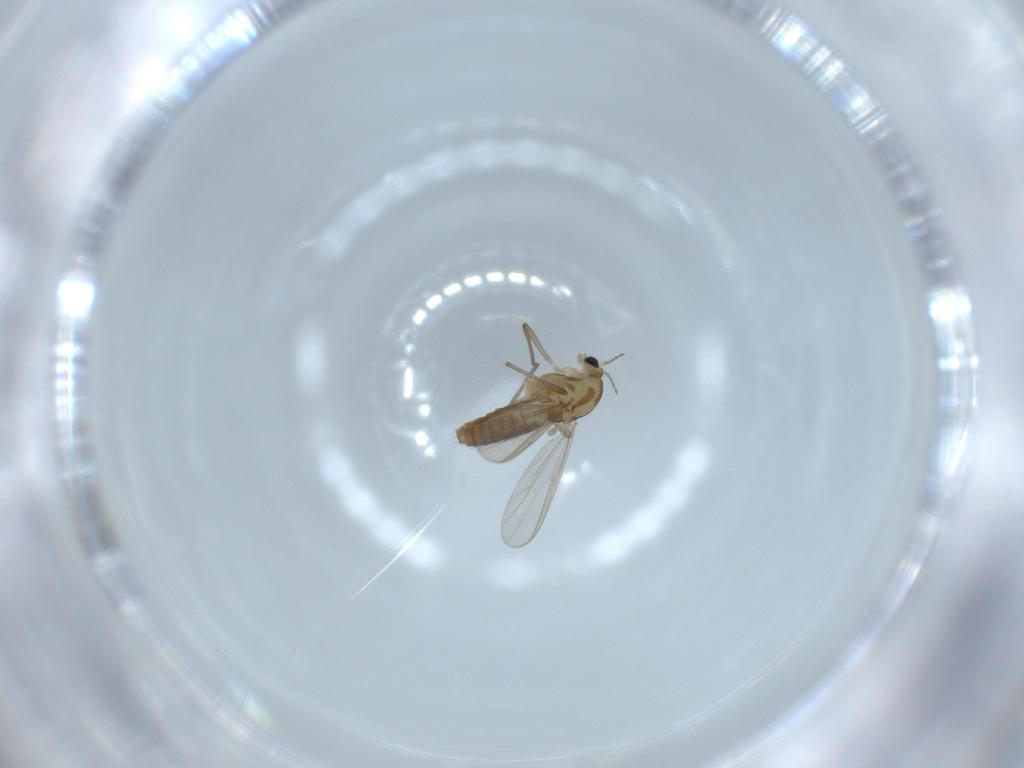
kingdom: Animalia
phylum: Arthropoda
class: Insecta
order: Diptera
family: Chironomidae
